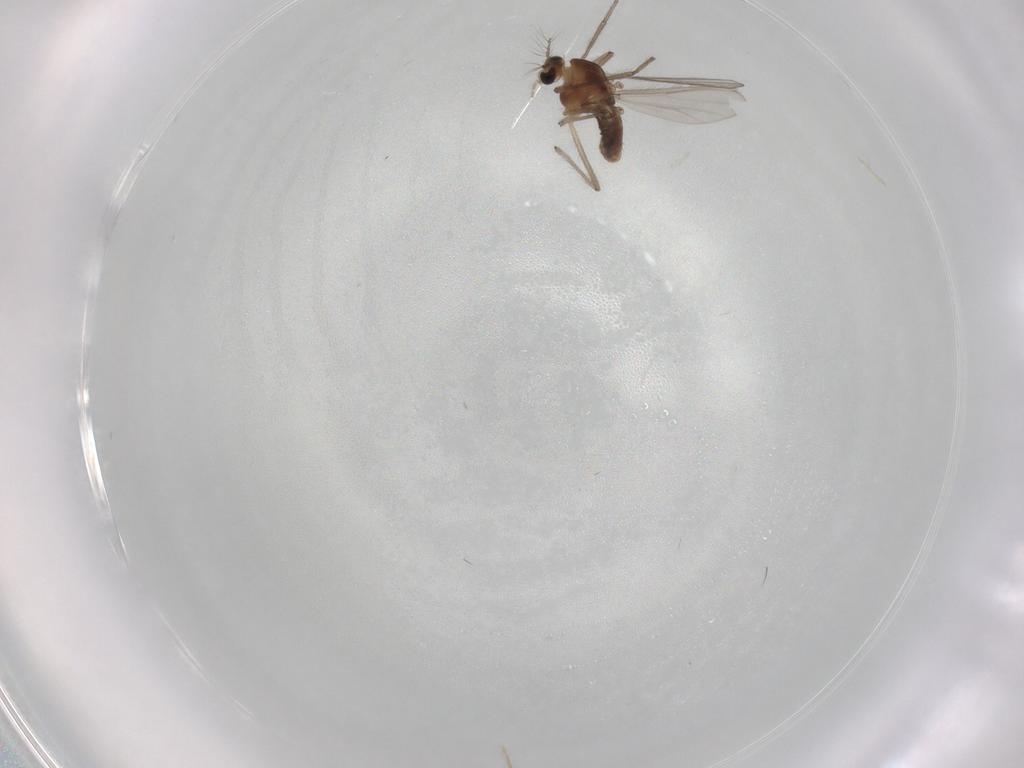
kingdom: Animalia
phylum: Arthropoda
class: Insecta
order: Diptera
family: Chironomidae
